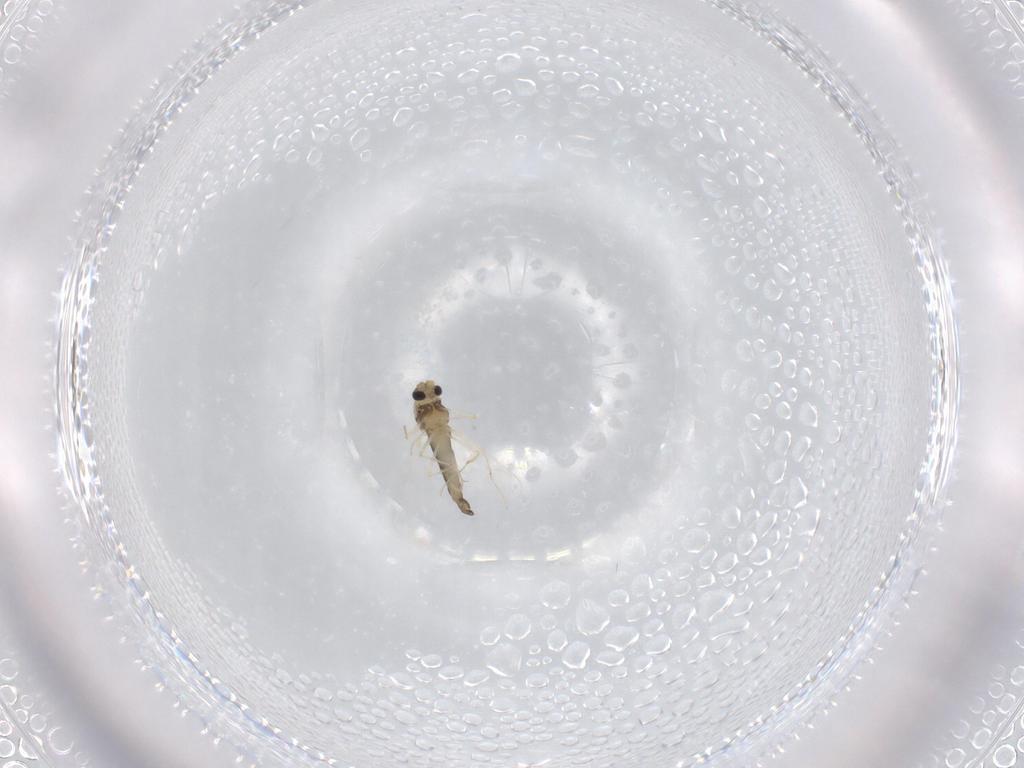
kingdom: Animalia
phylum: Arthropoda
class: Insecta
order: Diptera
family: Chironomidae
